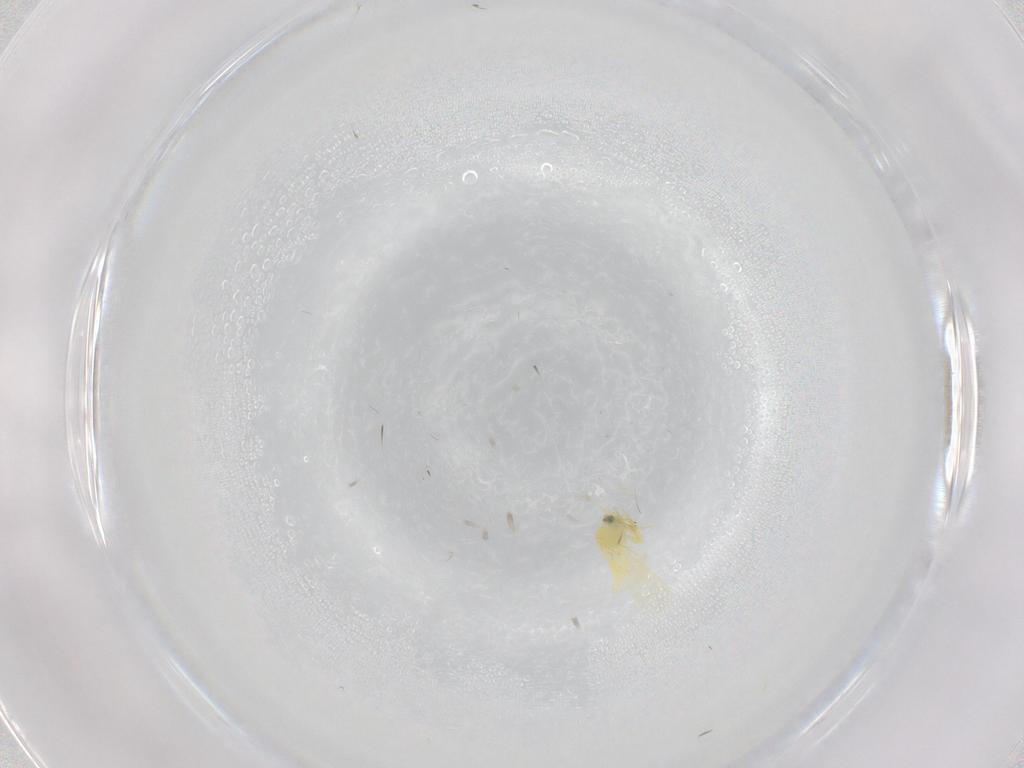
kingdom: Animalia
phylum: Arthropoda
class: Insecta
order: Hemiptera
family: Aleyrodidae
